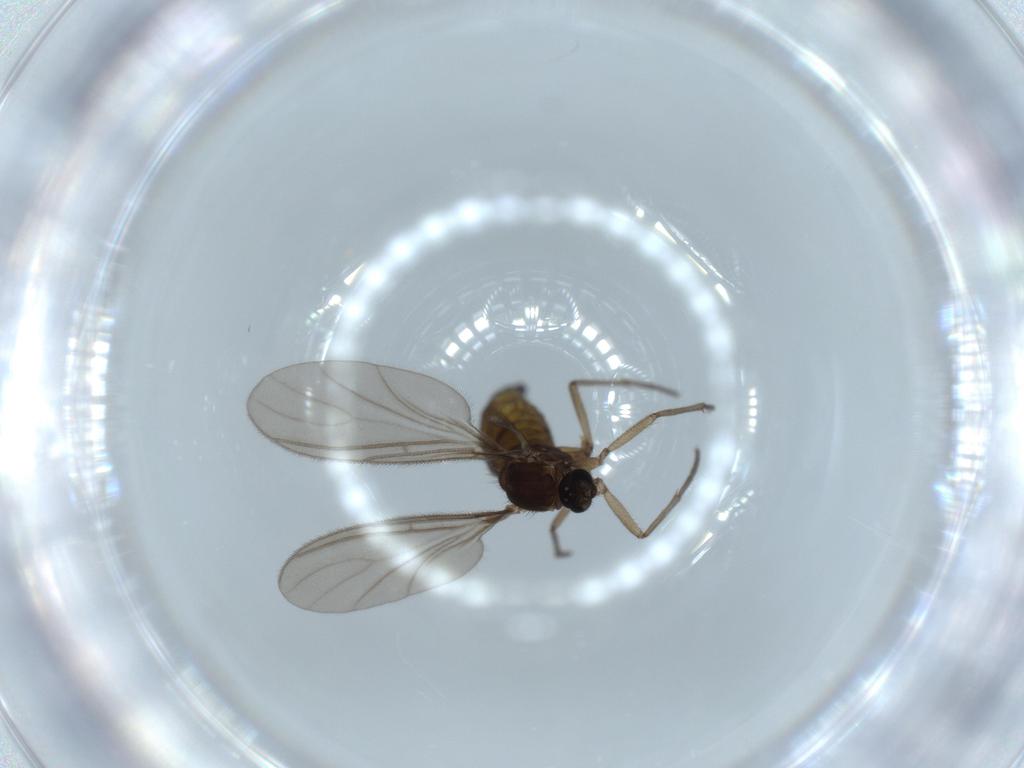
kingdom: Animalia
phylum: Arthropoda
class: Insecta
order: Diptera
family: Sciaridae
